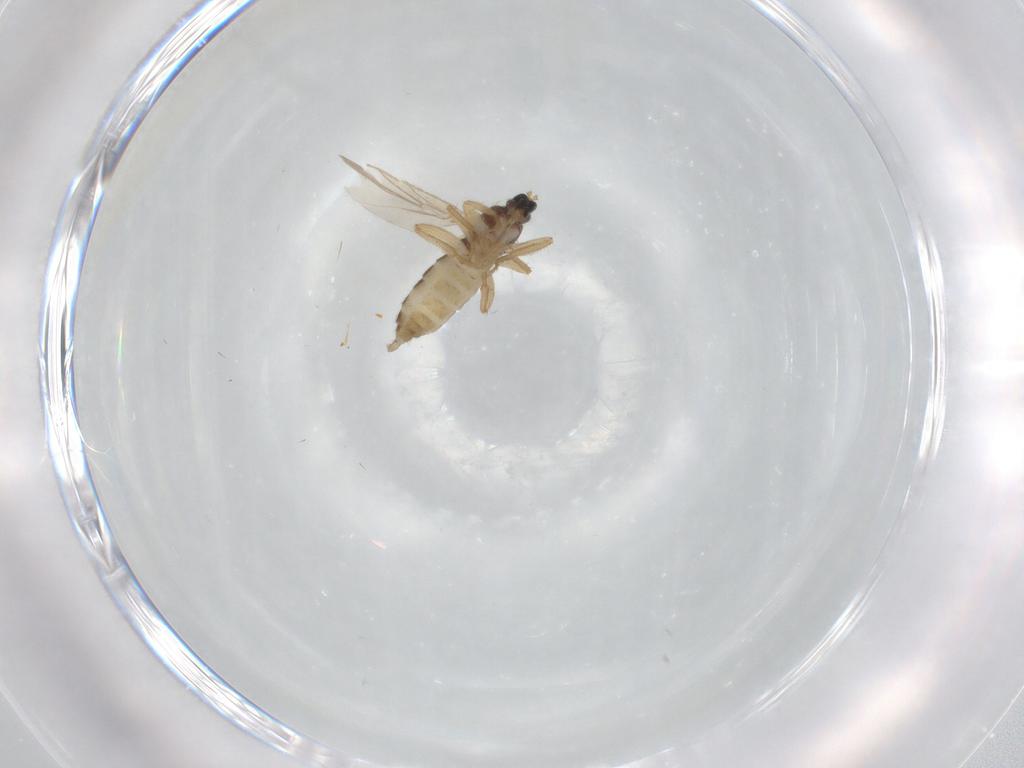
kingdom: Animalia
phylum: Arthropoda
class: Insecta
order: Diptera
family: Hybotidae
